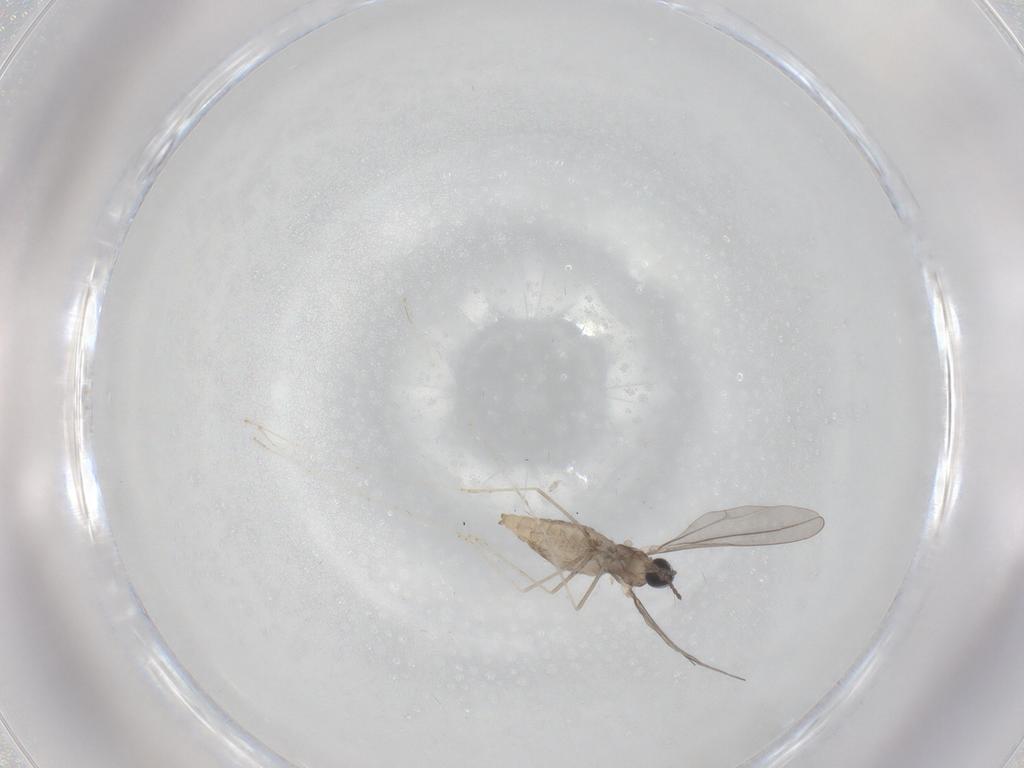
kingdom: Animalia
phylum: Arthropoda
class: Insecta
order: Diptera
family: Cecidomyiidae
